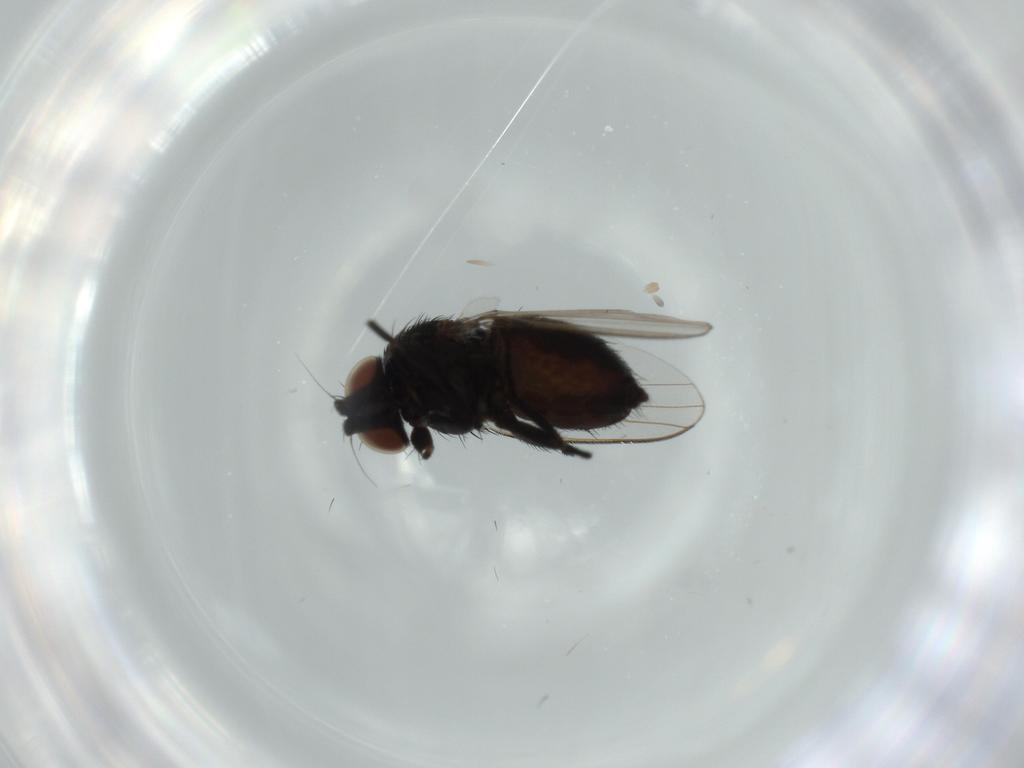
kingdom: Animalia
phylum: Arthropoda
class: Insecta
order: Diptera
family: Milichiidae
